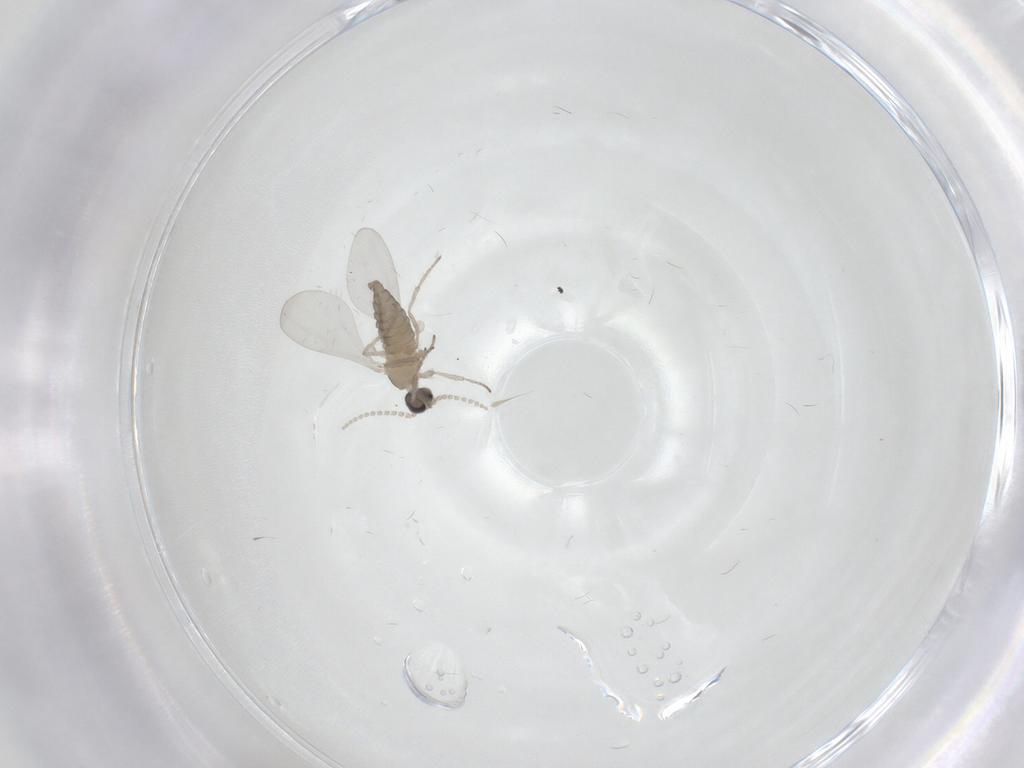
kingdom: Animalia
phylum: Arthropoda
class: Insecta
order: Diptera
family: Cecidomyiidae
